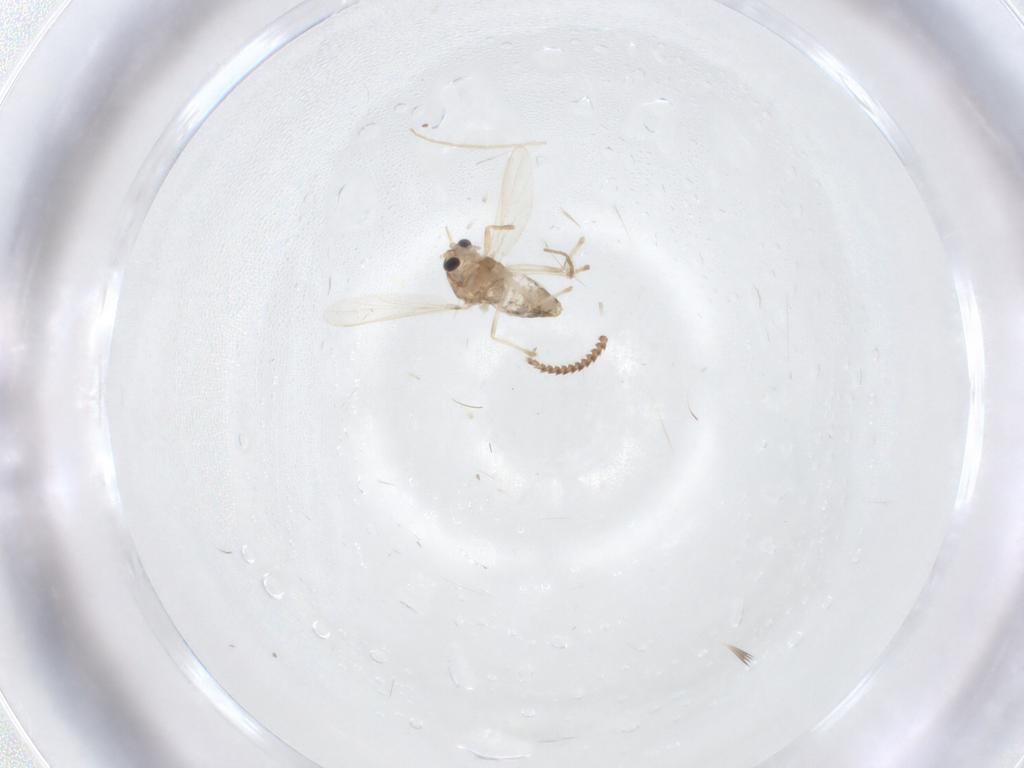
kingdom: Animalia
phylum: Arthropoda
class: Insecta
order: Diptera
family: Chironomidae
